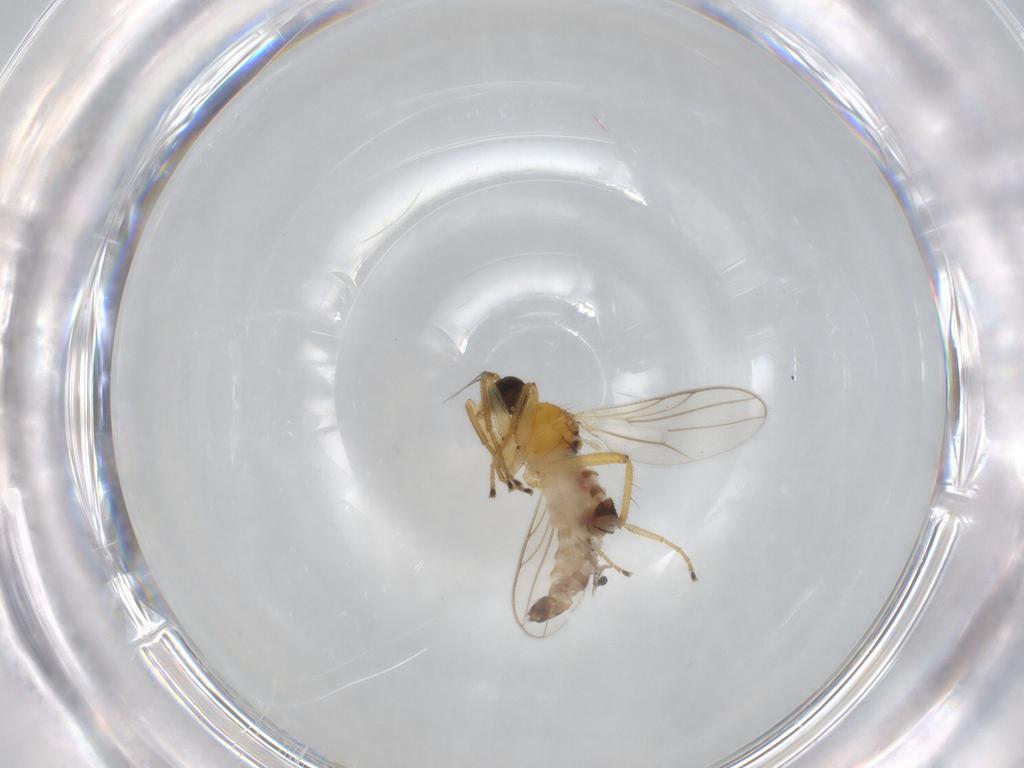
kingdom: Animalia
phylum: Arthropoda
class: Insecta
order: Diptera
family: Hybotidae
